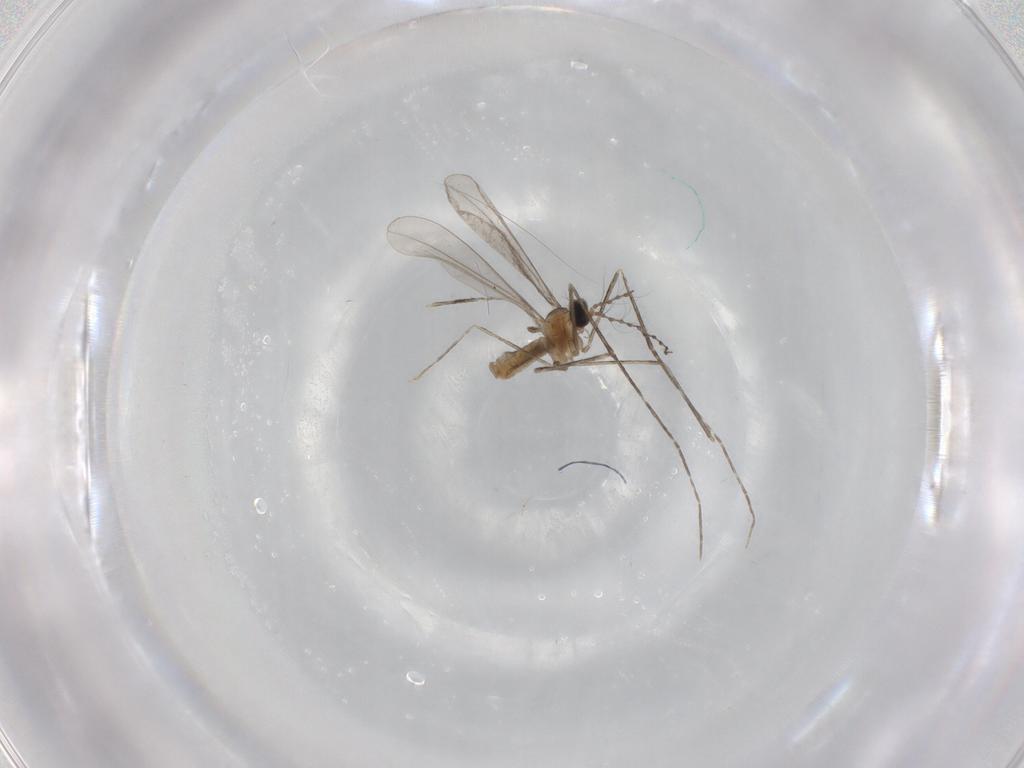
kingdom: Animalia
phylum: Arthropoda
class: Insecta
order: Diptera
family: Cecidomyiidae
